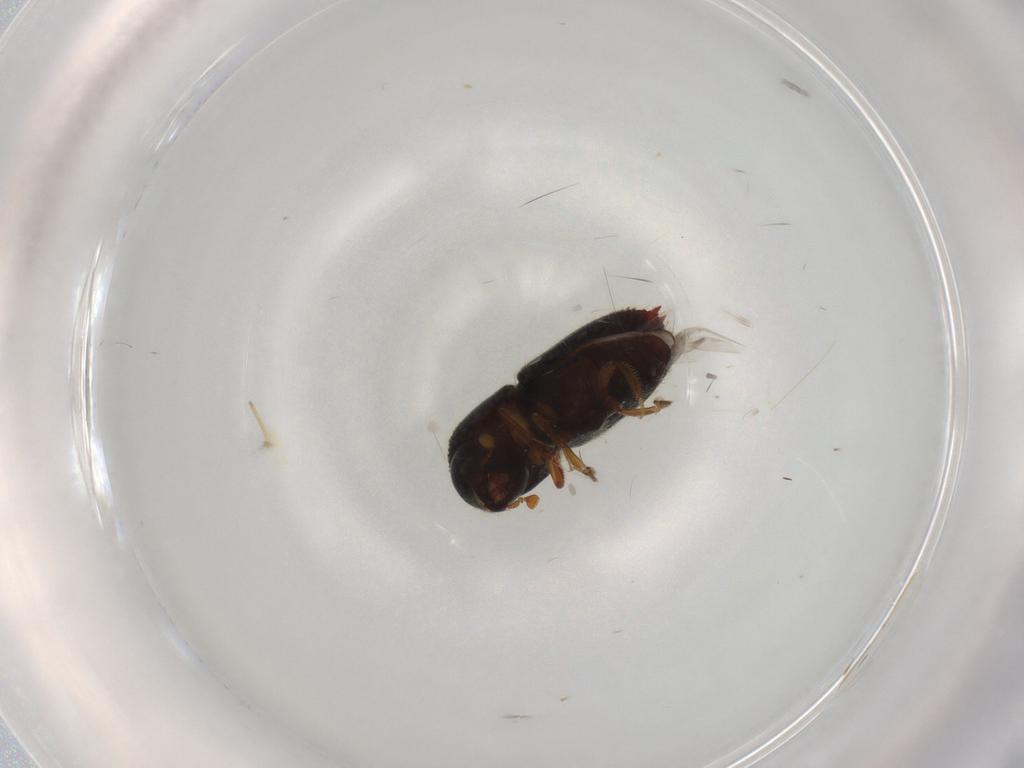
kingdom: Animalia
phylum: Arthropoda
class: Insecta
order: Coleoptera
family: Curculionidae
